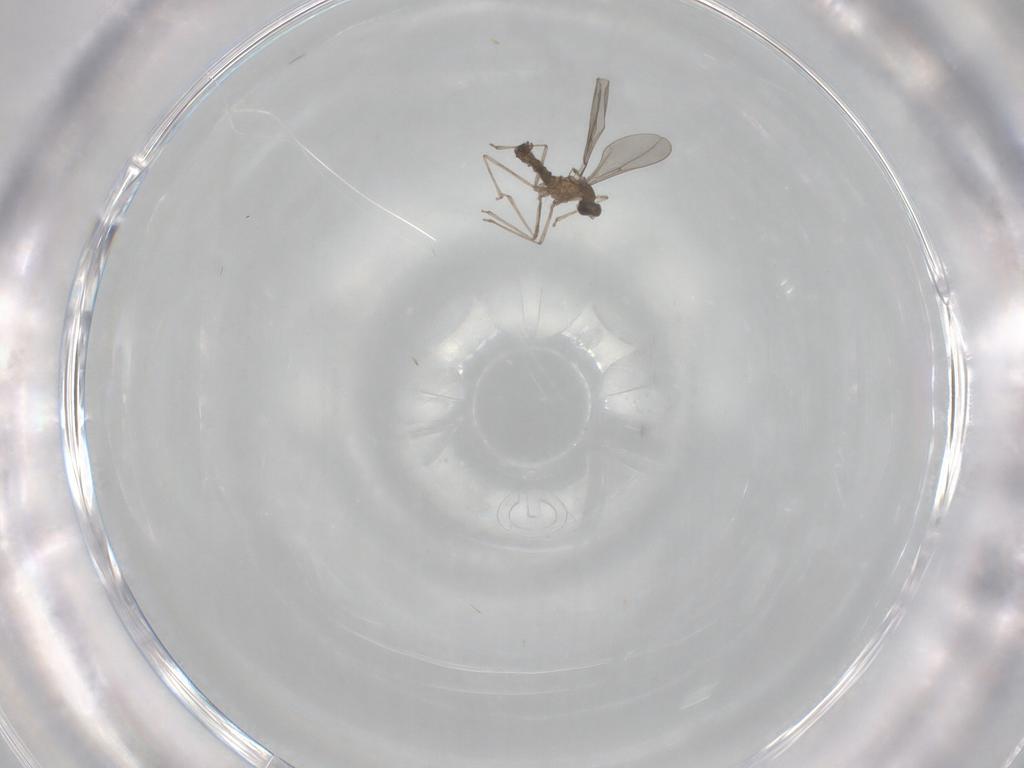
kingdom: Animalia
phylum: Arthropoda
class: Insecta
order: Diptera
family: Cecidomyiidae
